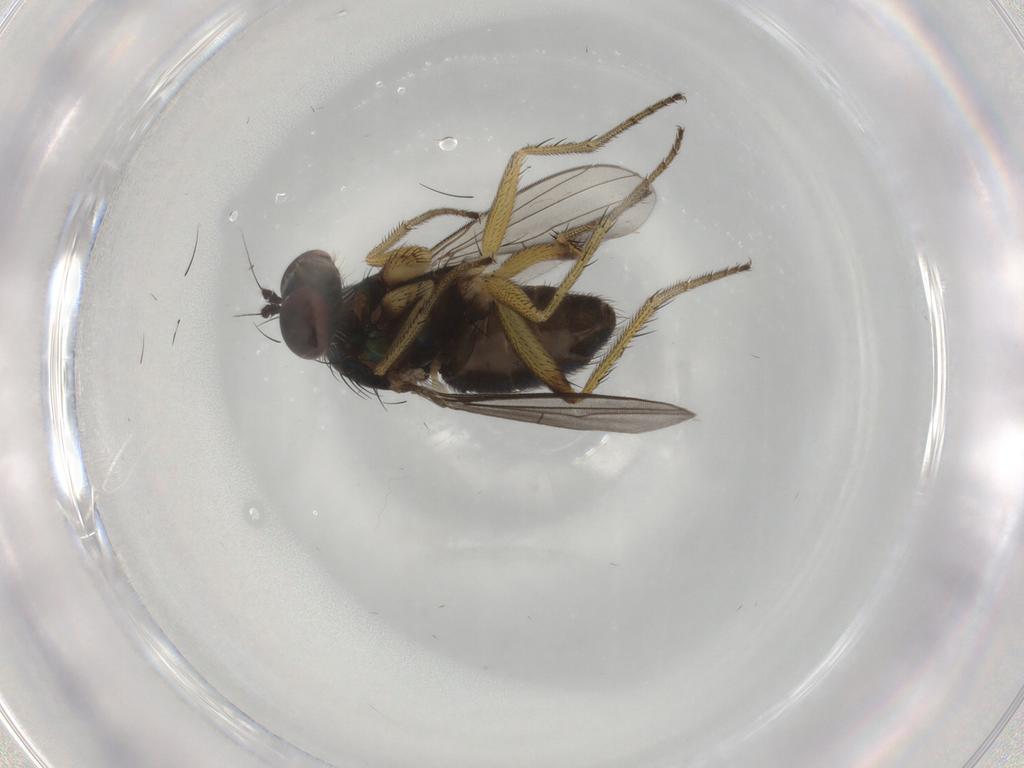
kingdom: Animalia
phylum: Arthropoda
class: Insecta
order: Diptera
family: Dolichopodidae
